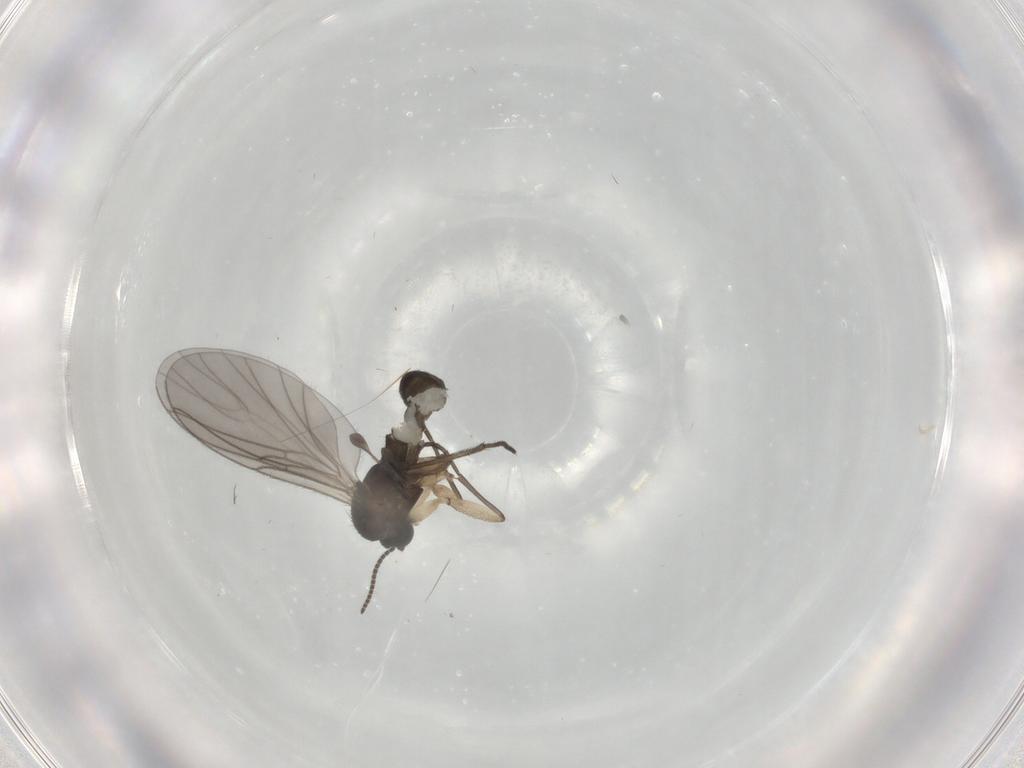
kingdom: Animalia
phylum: Arthropoda
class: Insecta
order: Diptera
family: Sciaridae
